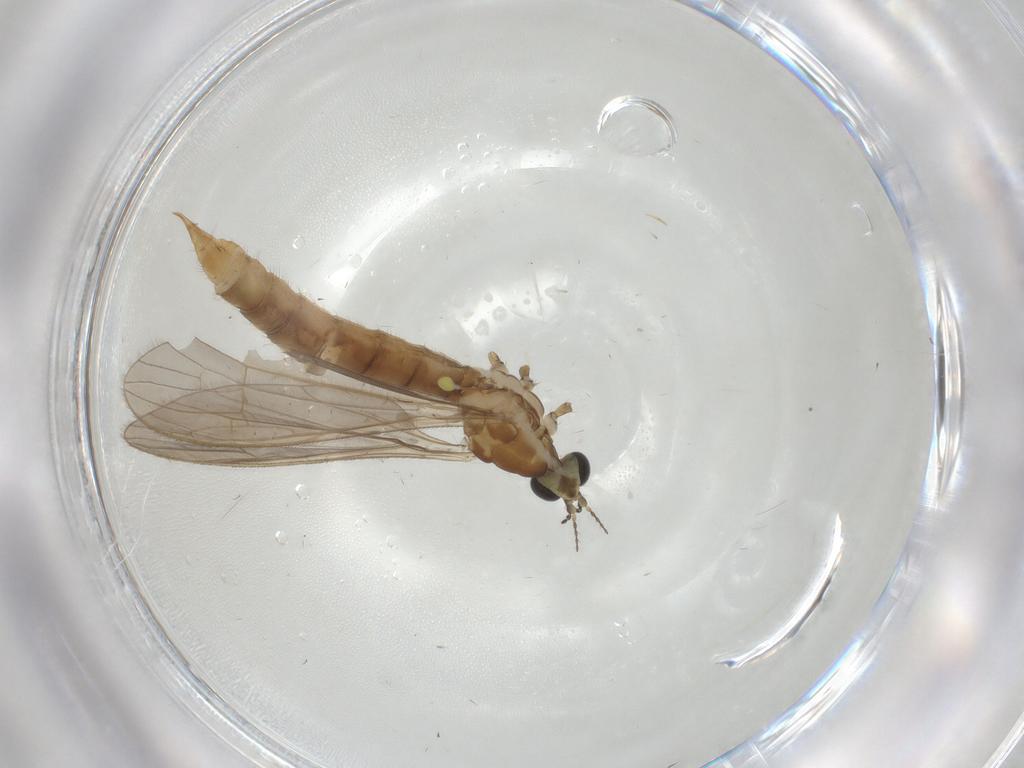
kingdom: Animalia
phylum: Arthropoda
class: Insecta
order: Diptera
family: Limoniidae
